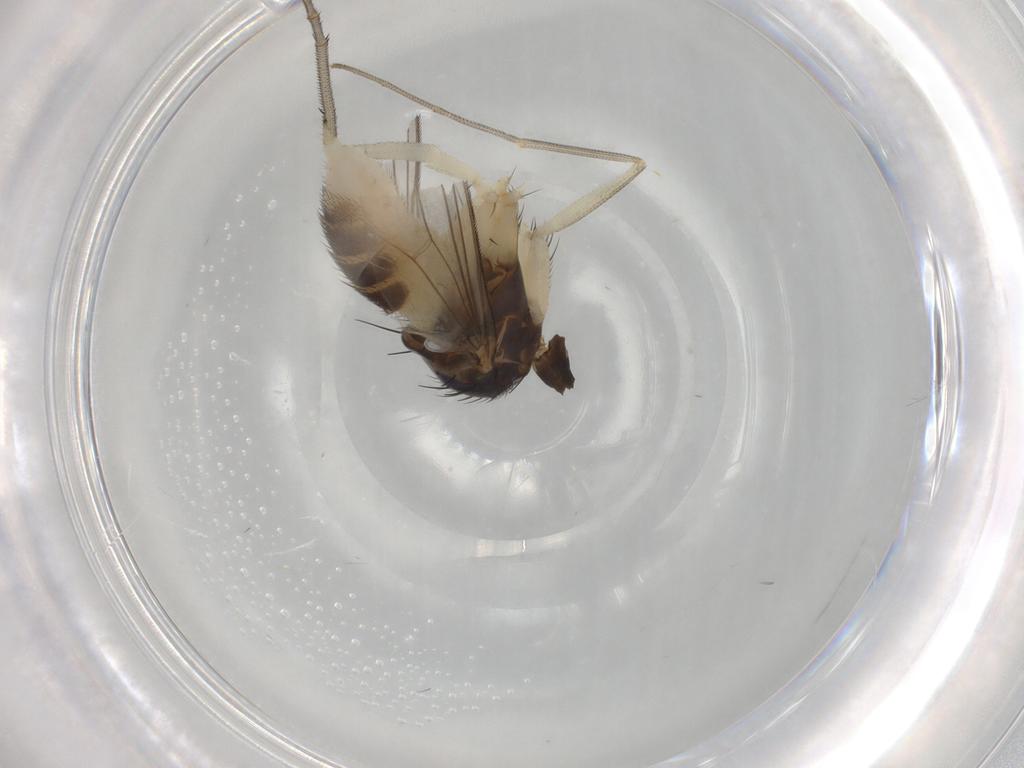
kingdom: Animalia
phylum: Arthropoda
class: Insecta
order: Diptera
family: Dolichopodidae
